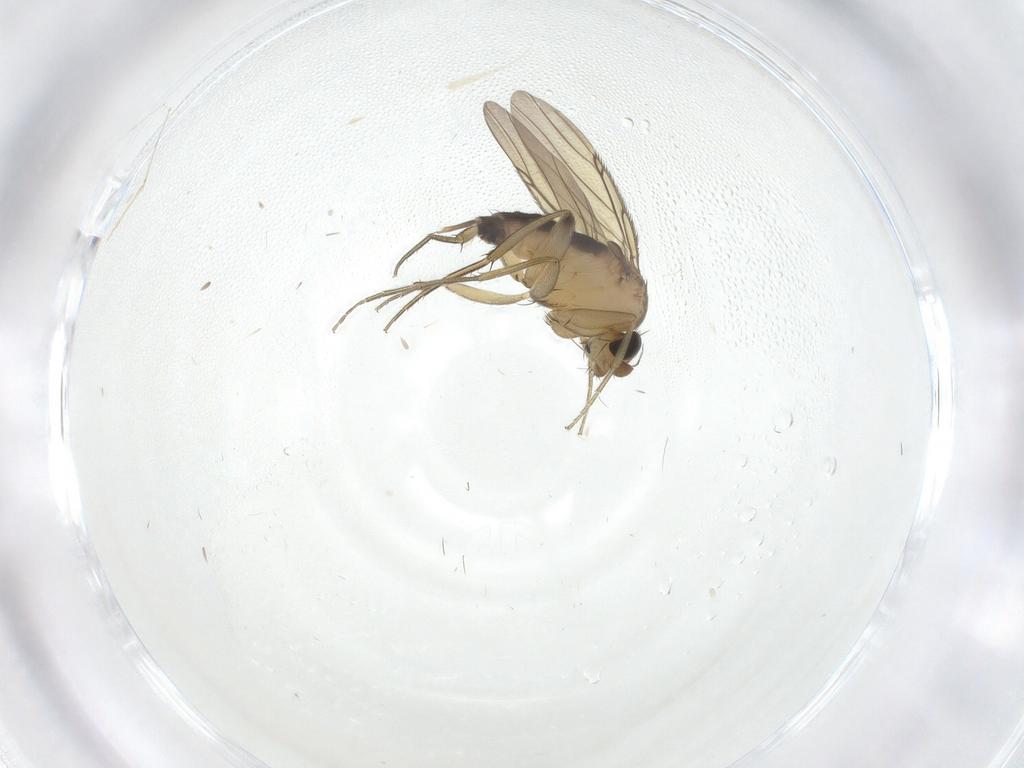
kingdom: Animalia
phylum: Arthropoda
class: Insecta
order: Diptera
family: Phoridae
